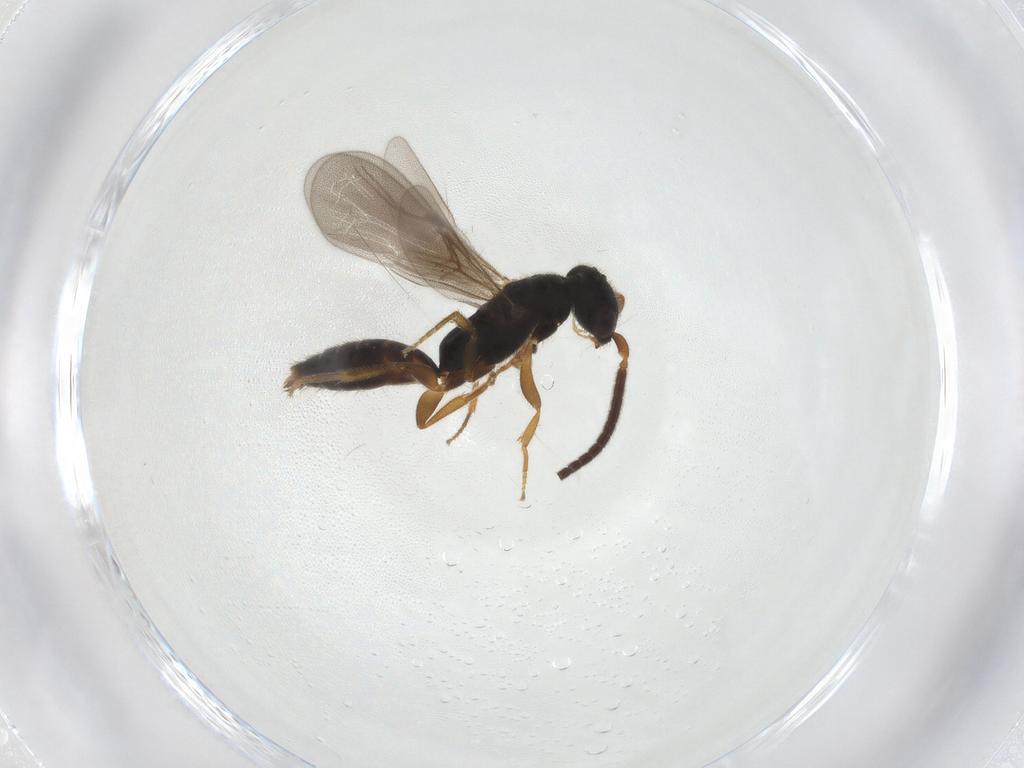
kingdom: Animalia
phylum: Arthropoda
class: Insecta
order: Hymenoptera
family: Bethylidae
